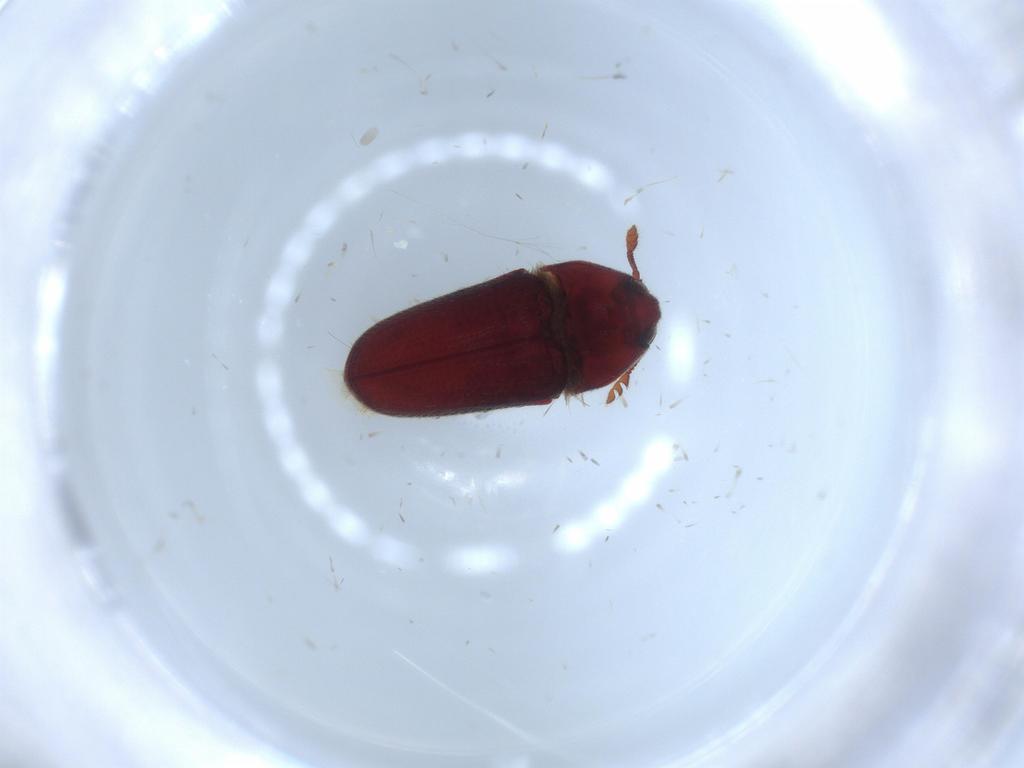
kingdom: Animalia
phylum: Arthropoda
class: Insecta
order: Coleoptera
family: Throscidae
